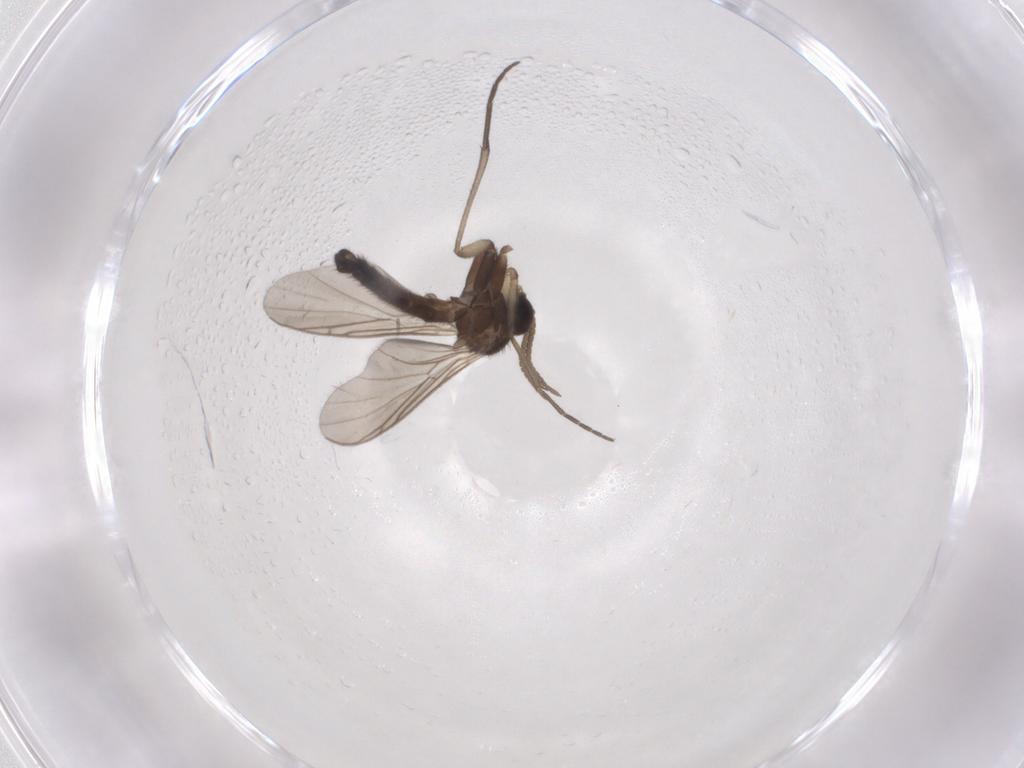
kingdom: Animalia
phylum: Arthropoda
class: Insecta
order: Diptera
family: Keroplatidae
